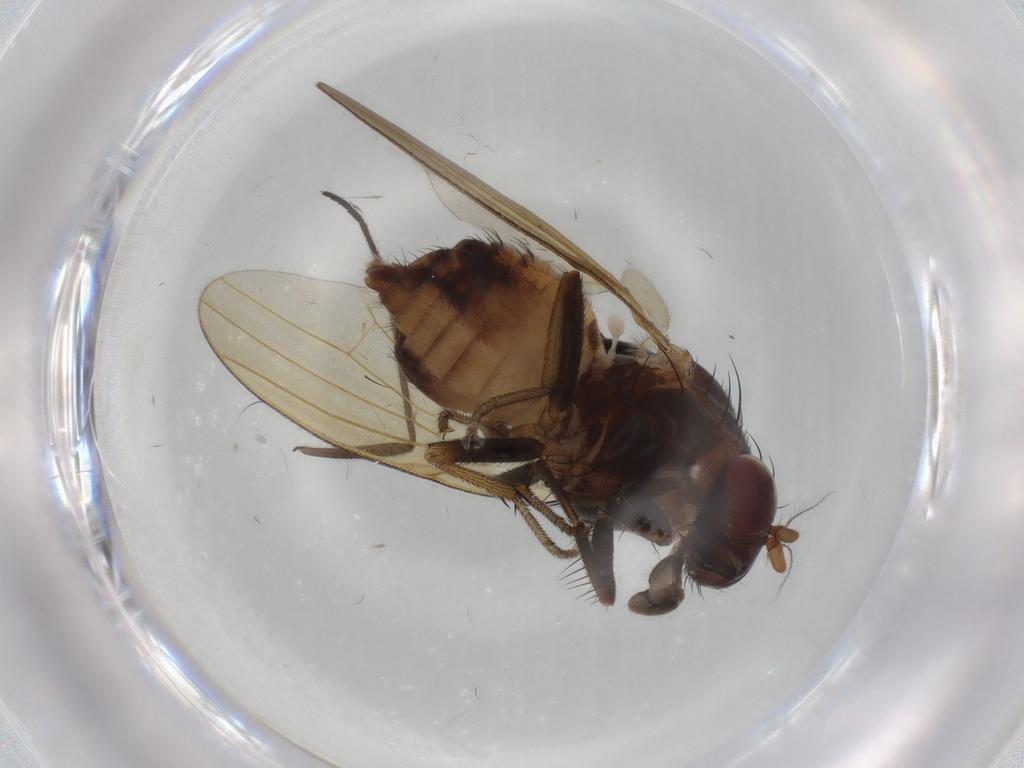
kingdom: Animalia
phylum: Arthropoda
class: Insecta
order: Diptera
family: Sciaridae
